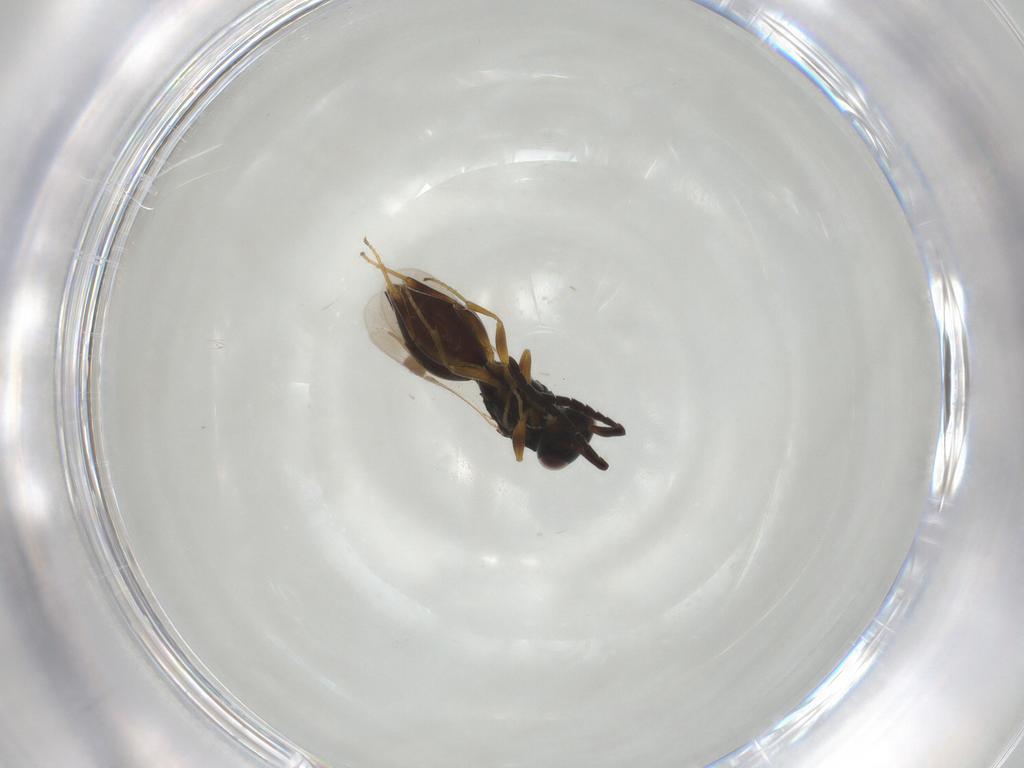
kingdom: Animalia
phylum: Arthropoda
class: Insecta
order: Hymenoptera
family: Megaspilidae
